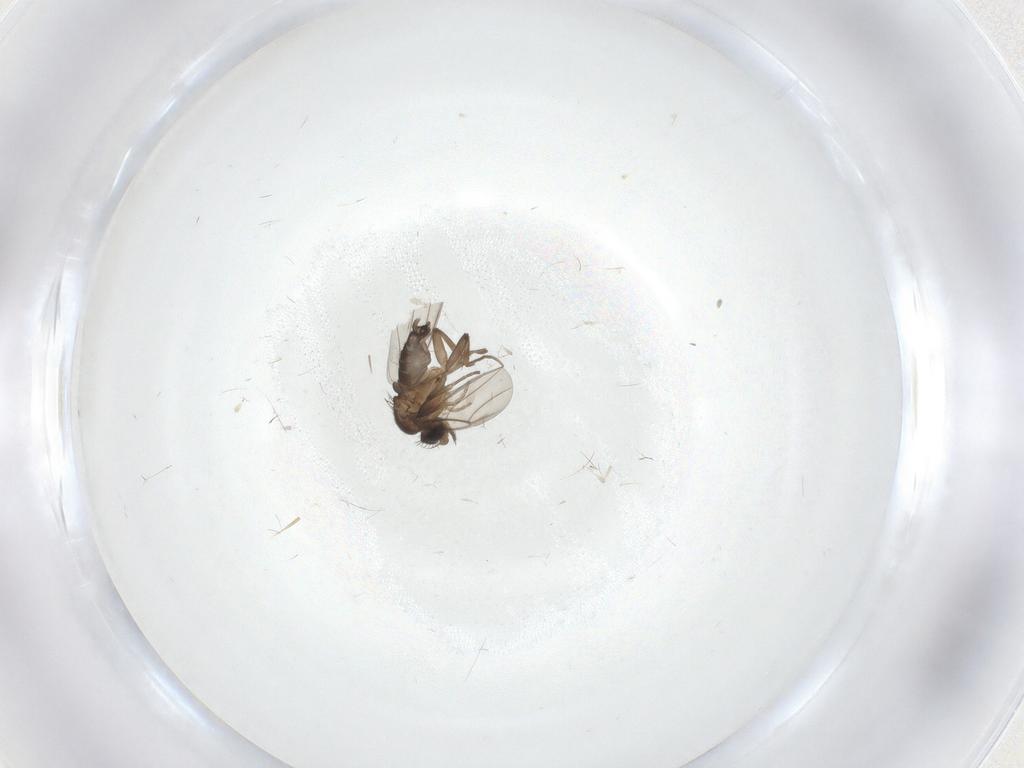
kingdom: Animalia
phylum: Arthropoda
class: Insecta
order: Diptera
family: Phoridae
